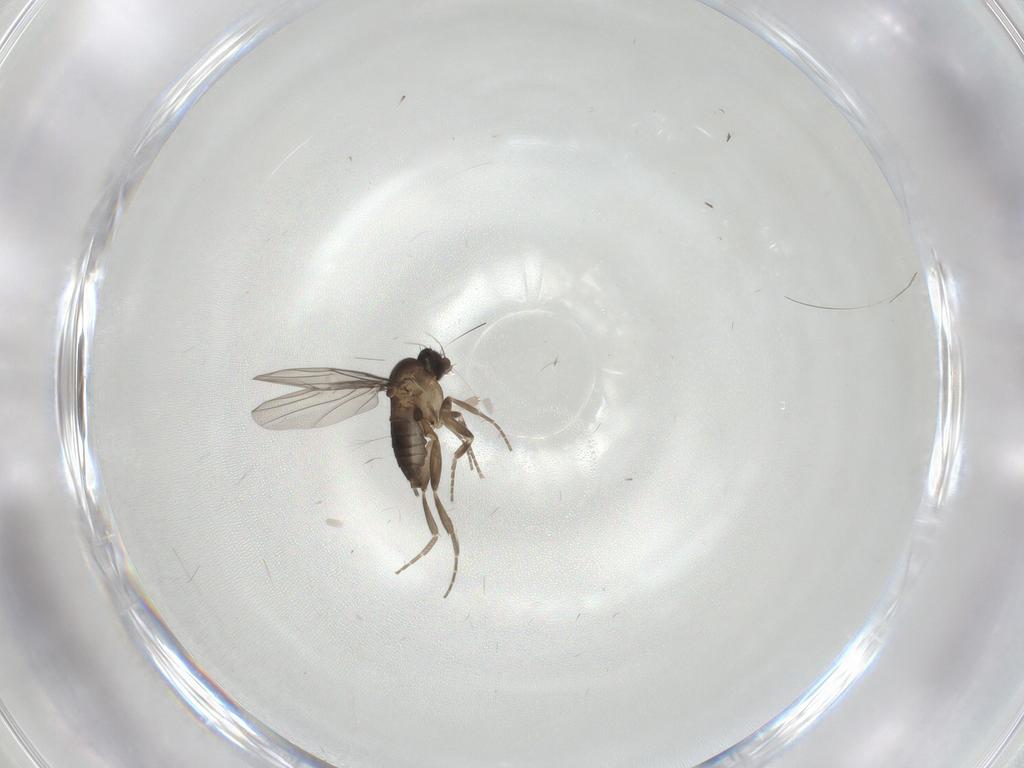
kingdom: Animalia
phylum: Arthropoda
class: Insecta
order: Diptera
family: Phoridae
